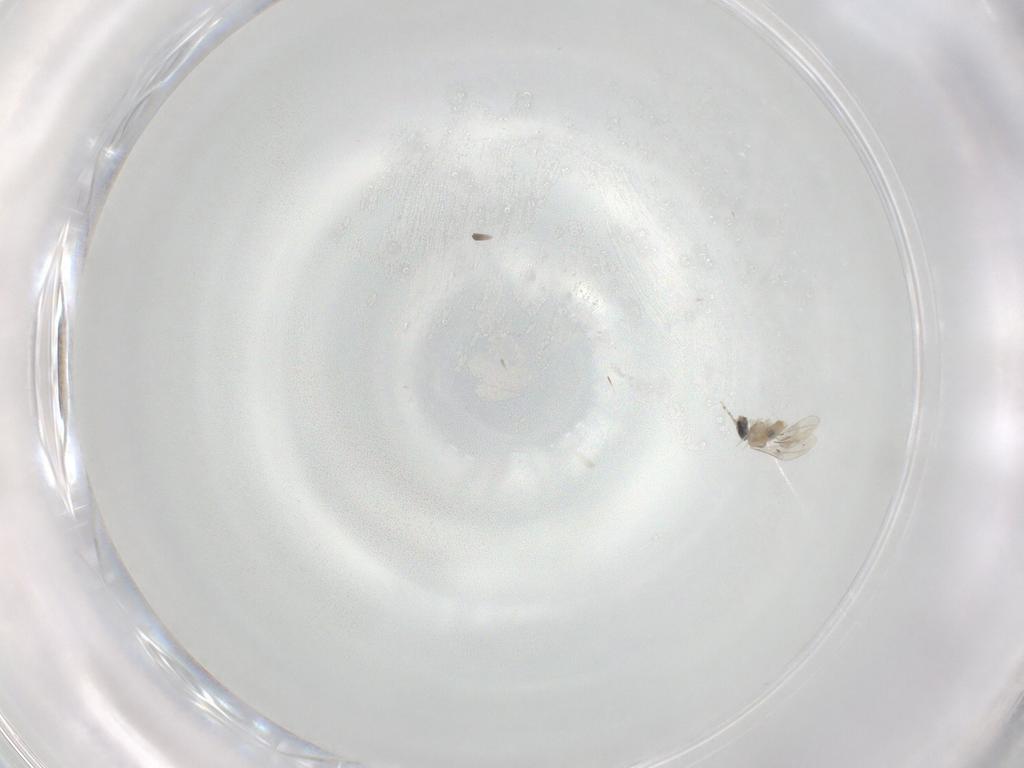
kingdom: Animalia
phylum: Arthropoda
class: Insecta
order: Diptera
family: Cecidomyiidae
